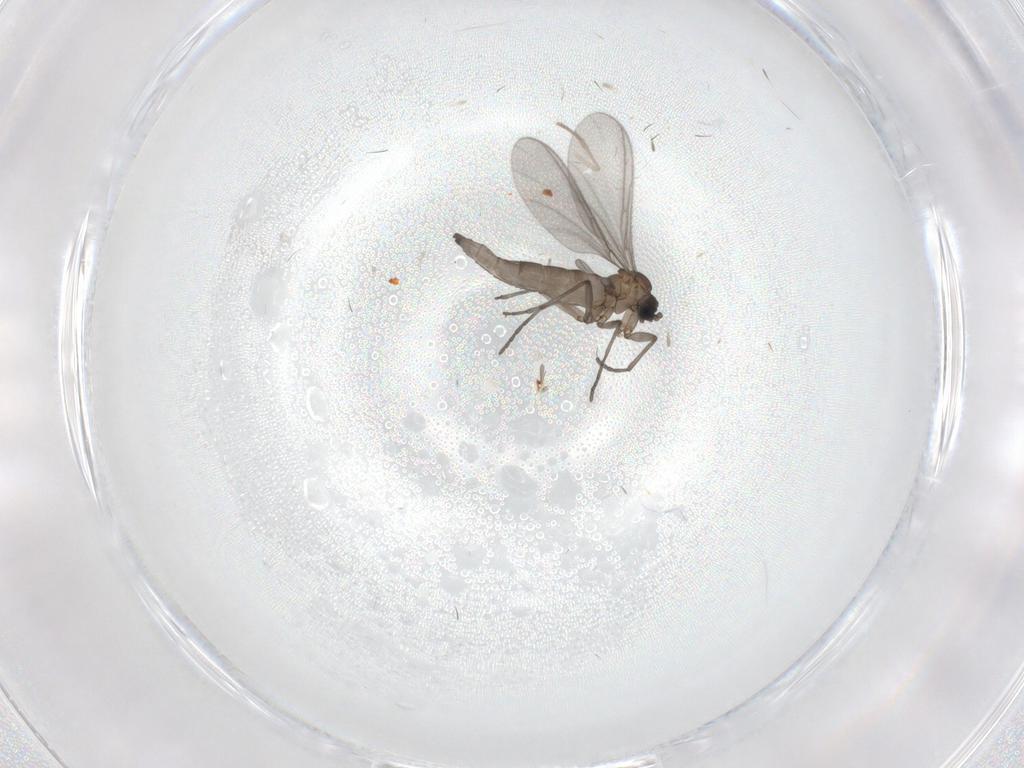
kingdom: Animalia
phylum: Arthropoda
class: Insecta
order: Diptera
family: Sciaridae
